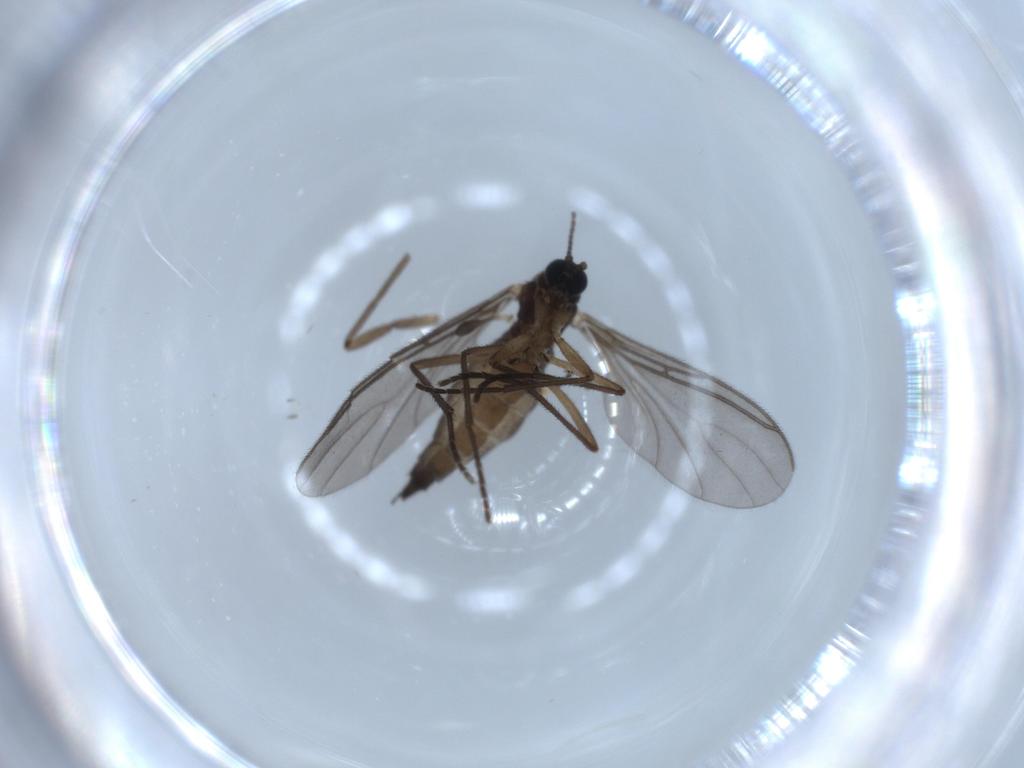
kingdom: Animalia
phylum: Arthropoda
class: Insecta
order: Diptera
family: Sciaridae
